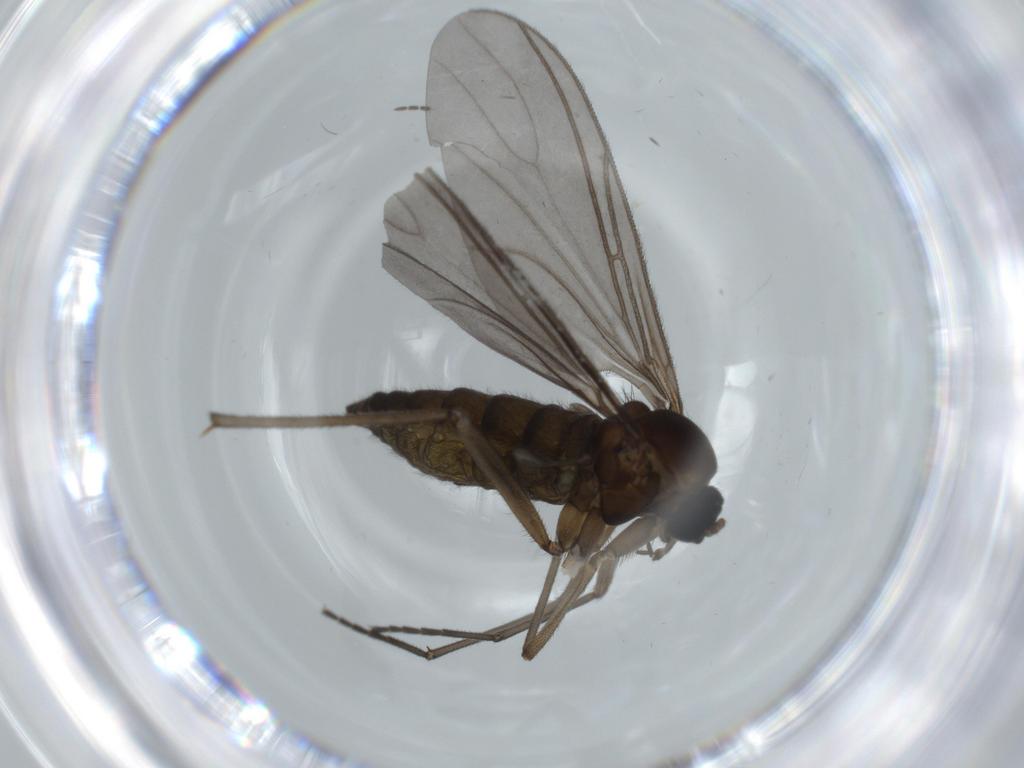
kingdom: Animalia
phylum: Arthropoda
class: Insecta
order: Diptera
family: Sciaridae
